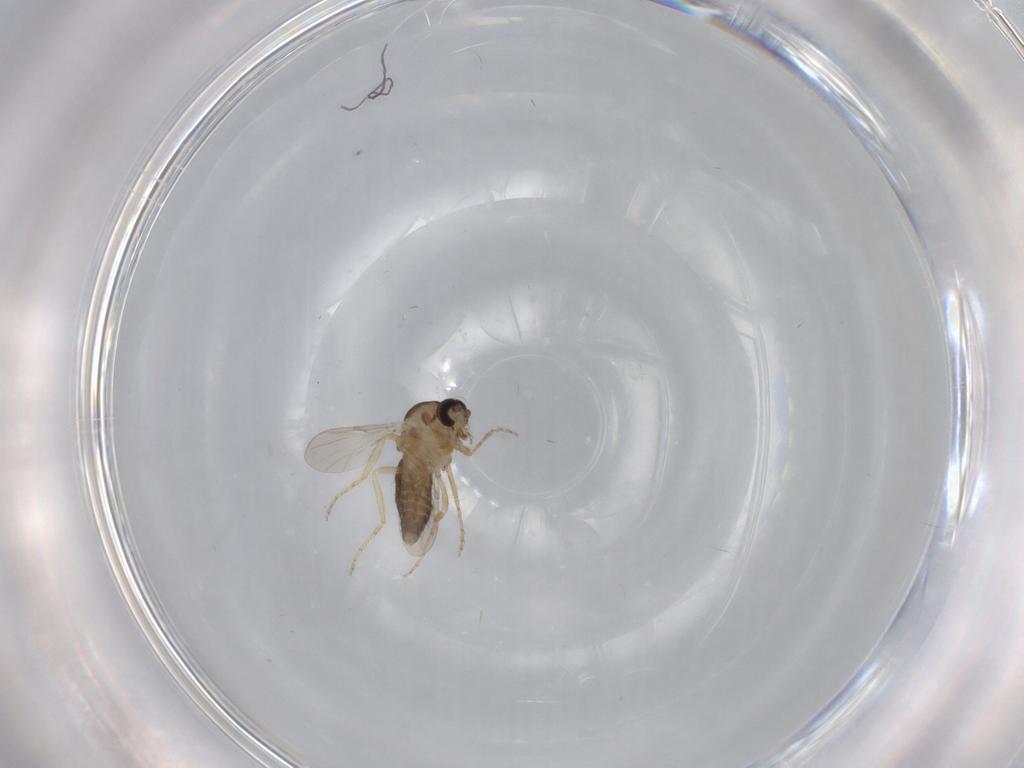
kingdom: Animalia
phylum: Arthropoda
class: Insecta
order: Diptera
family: Ceratopogonidae
